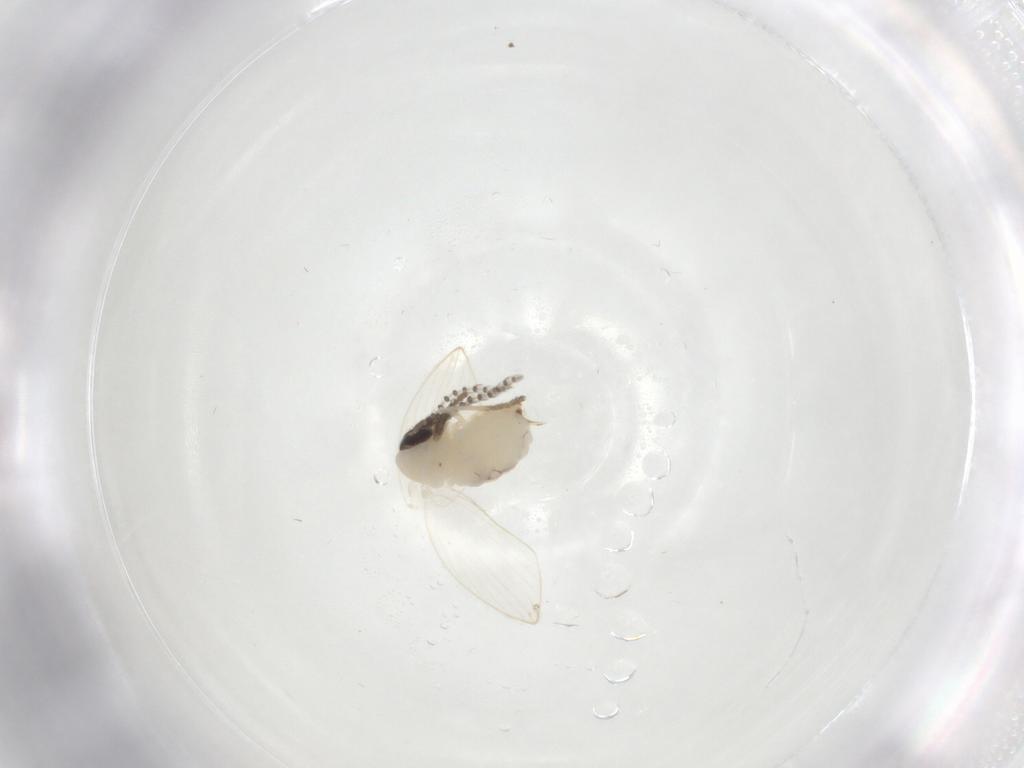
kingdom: Animalia
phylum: Arthropoda
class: Insecta
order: Diptera
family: Psychodidae
